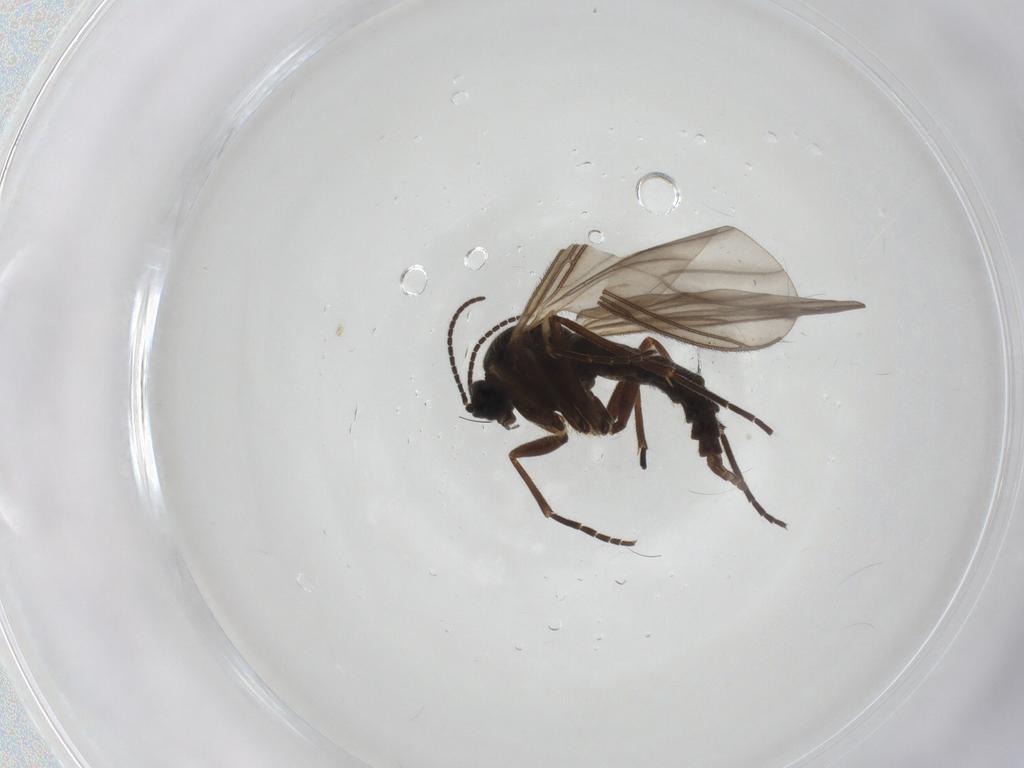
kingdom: Animalia
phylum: Arthropoda
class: Insecta
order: Diptera
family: Sciaridae
